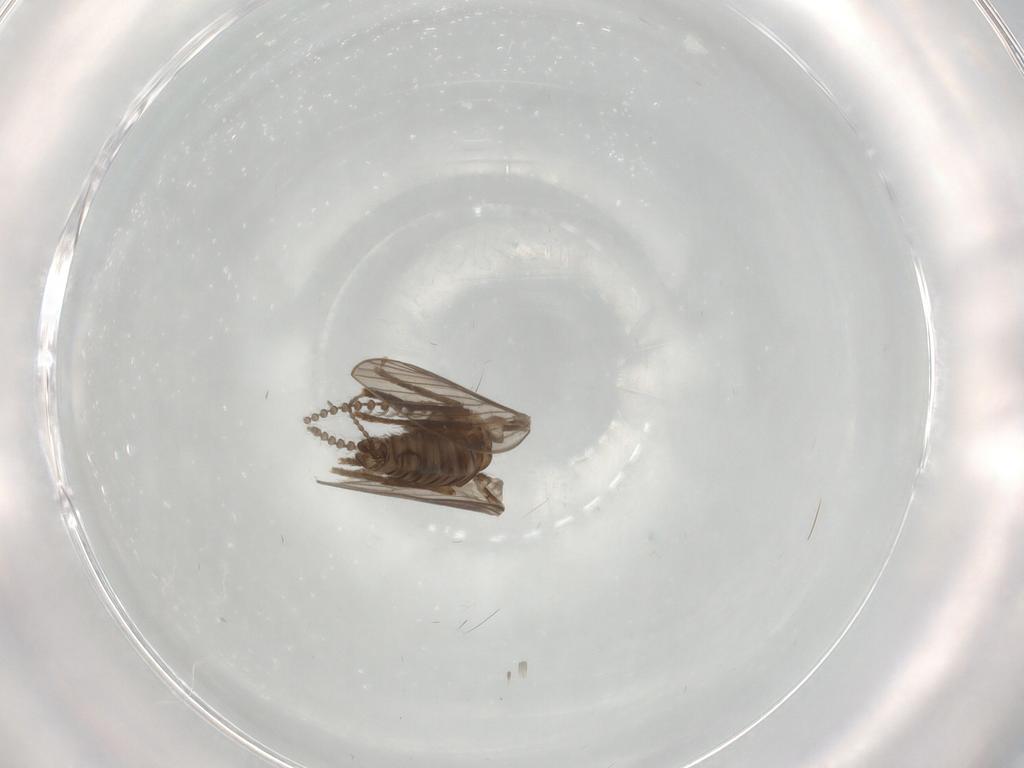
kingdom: Animalia
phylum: Arthropoda
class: Insecta
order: Diptera
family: Psychodidae
